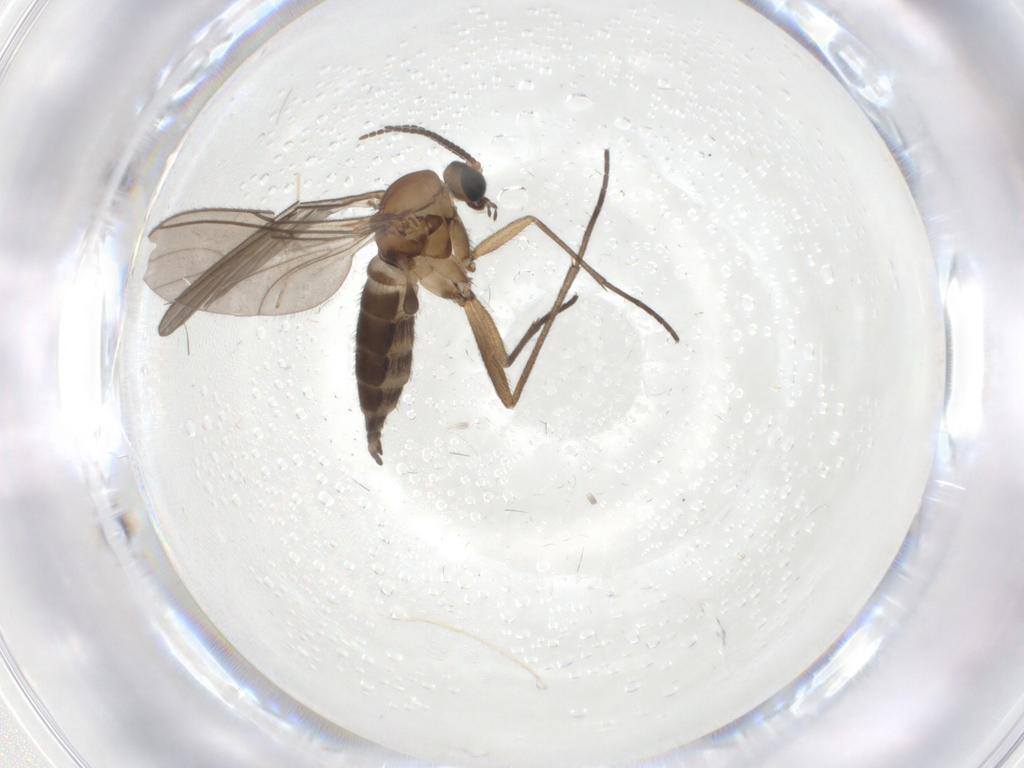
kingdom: Animalia
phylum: Arthropoda
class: Insecta
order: Diptera
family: Sciaridae
